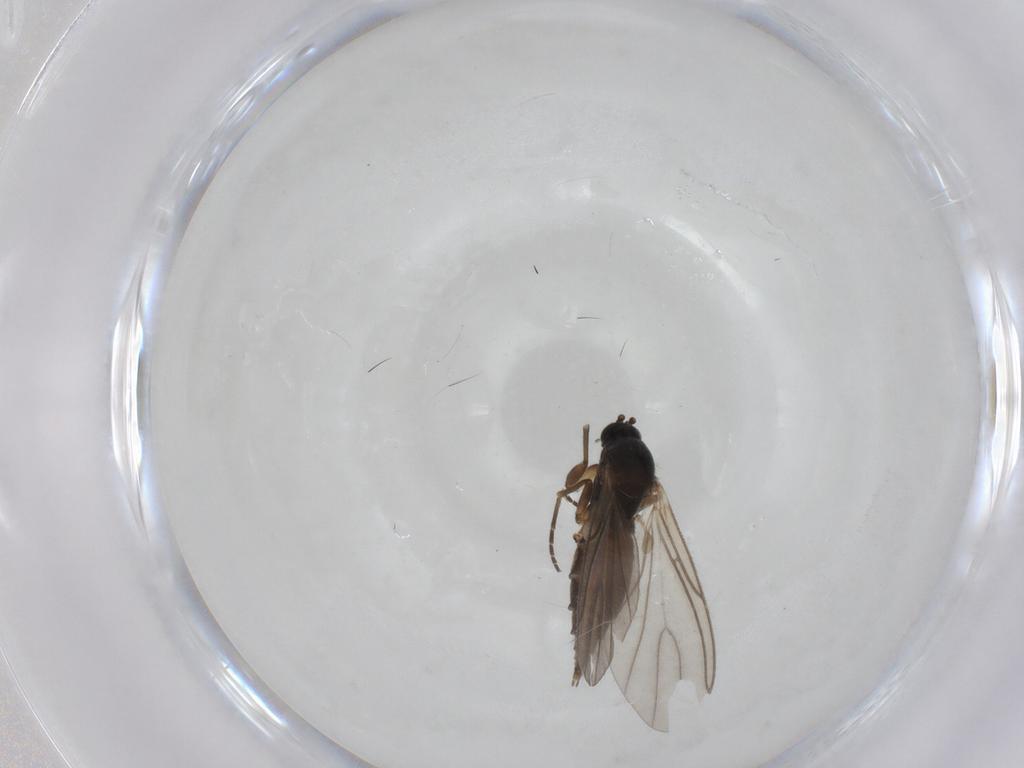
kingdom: Animalia
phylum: Arthropoda
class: Insecta
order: Diptera
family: Sciaridae
